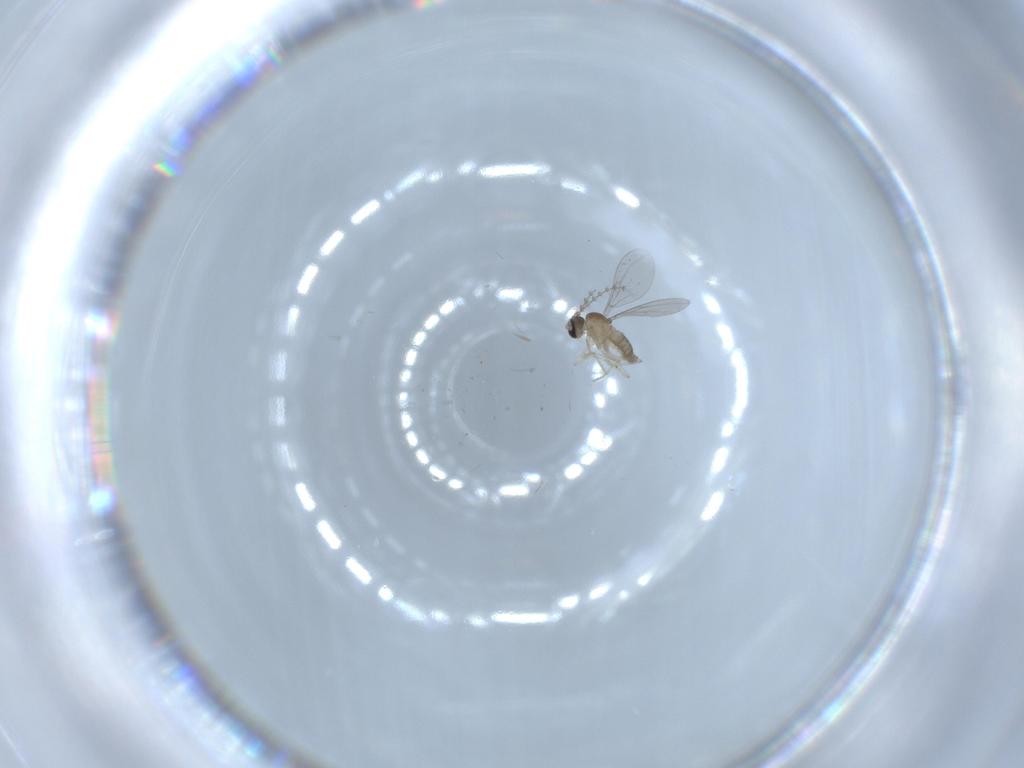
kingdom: Animalia
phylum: Arthropoda
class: Insecta
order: Diptera
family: Cecidomyiidae
